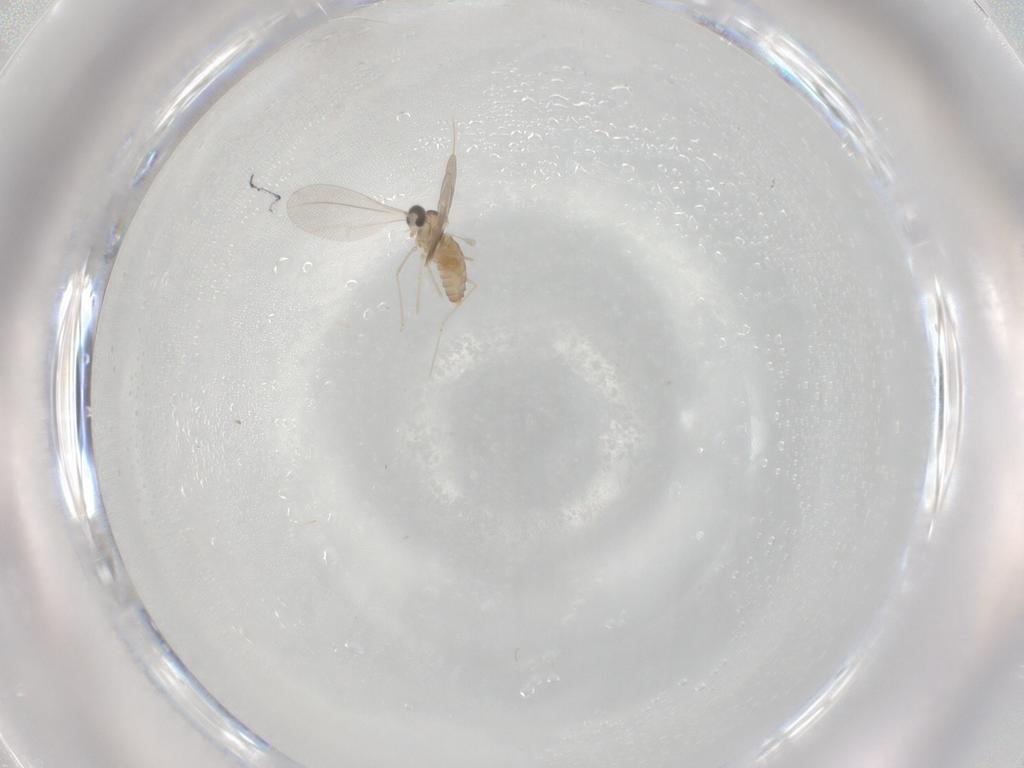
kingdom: Animalia
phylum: Arthropoda
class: Insecta
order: Diptera
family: Cecidomyiidae
